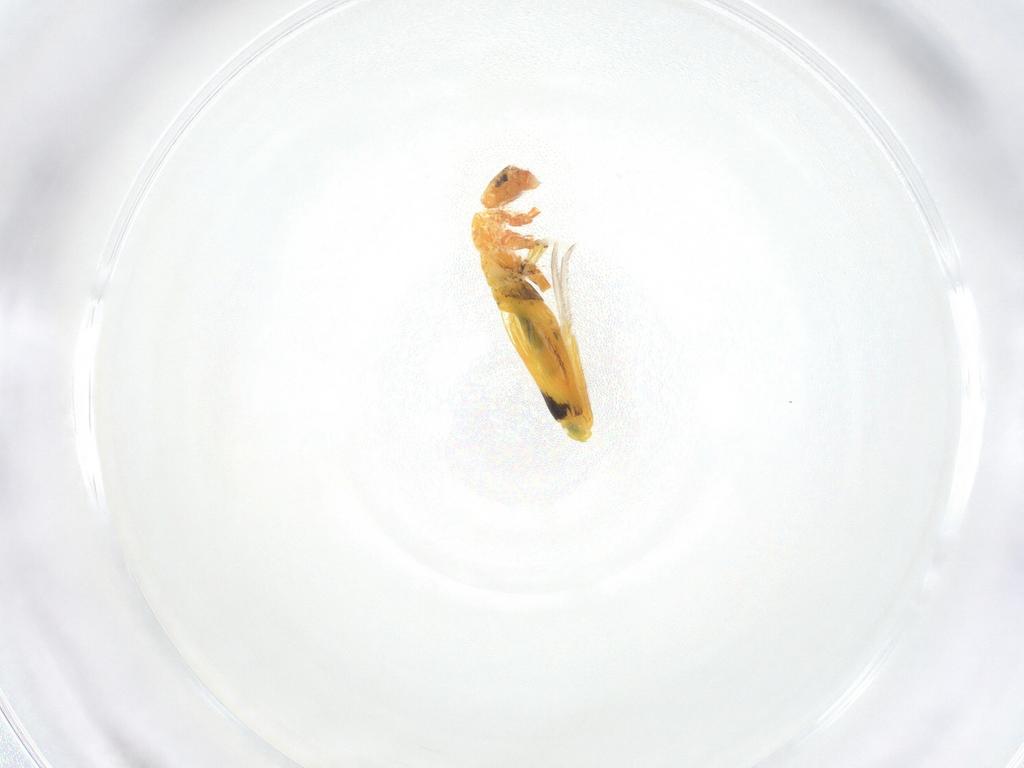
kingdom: Animalia
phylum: Arthropoda
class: Collembola
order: Entomobryomorpha
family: Entomobryidae
